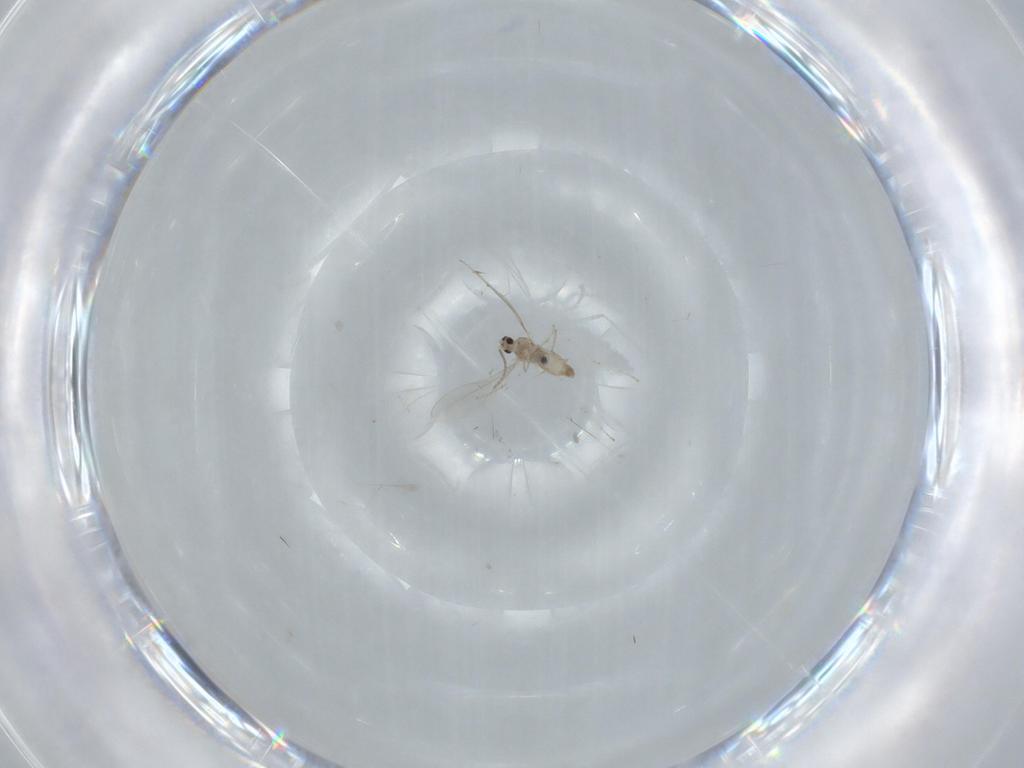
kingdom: Animalia
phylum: Arthropoda
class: Insecta
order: Diptera
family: Cecidomyiidae
